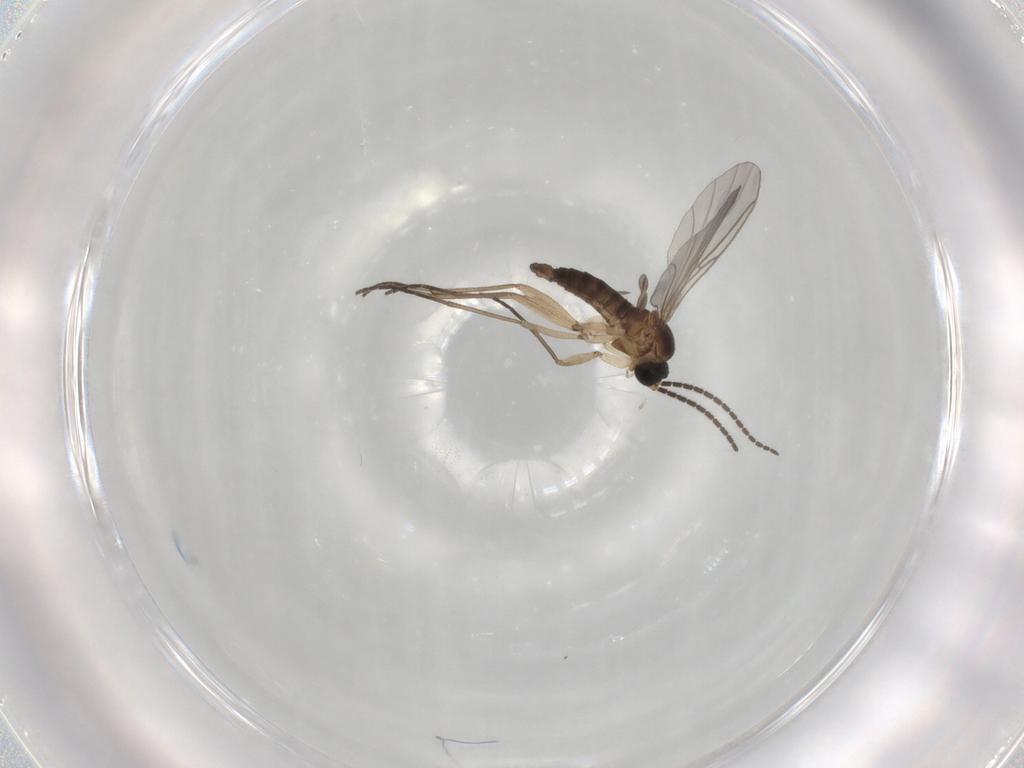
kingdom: Animalia
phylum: Arthropoda
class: Insecta
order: Diptera
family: Sciaridae
